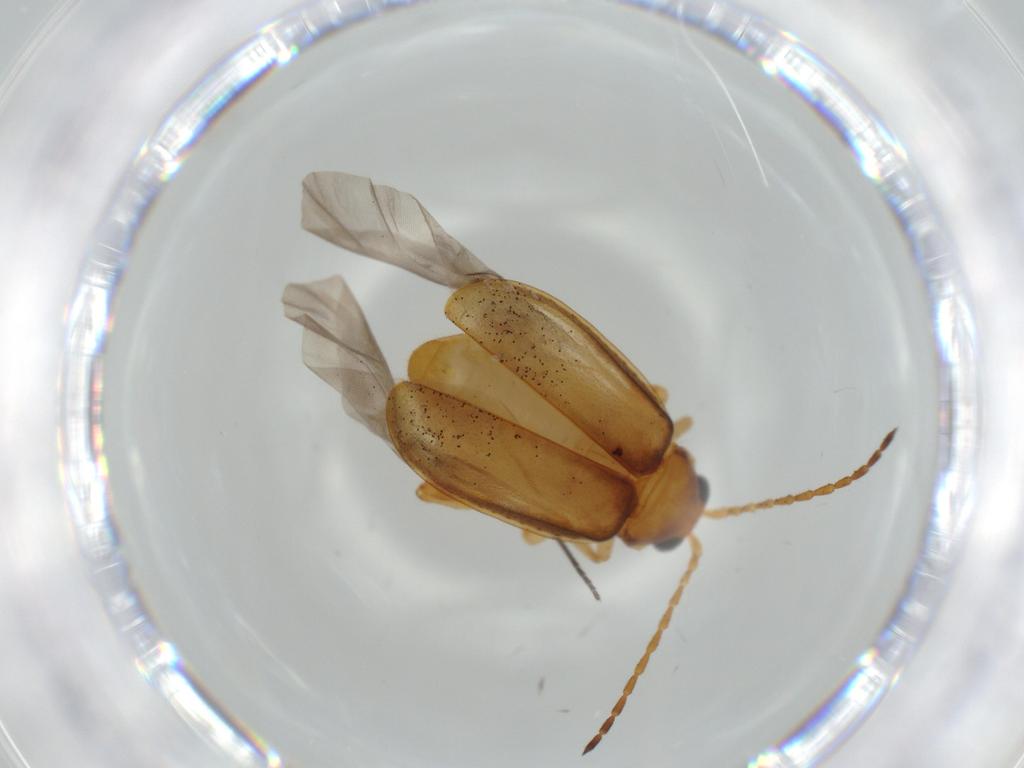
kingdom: Animalia
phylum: Arthropoda
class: Insecta
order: Coleoptera
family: Chrysomelidae
